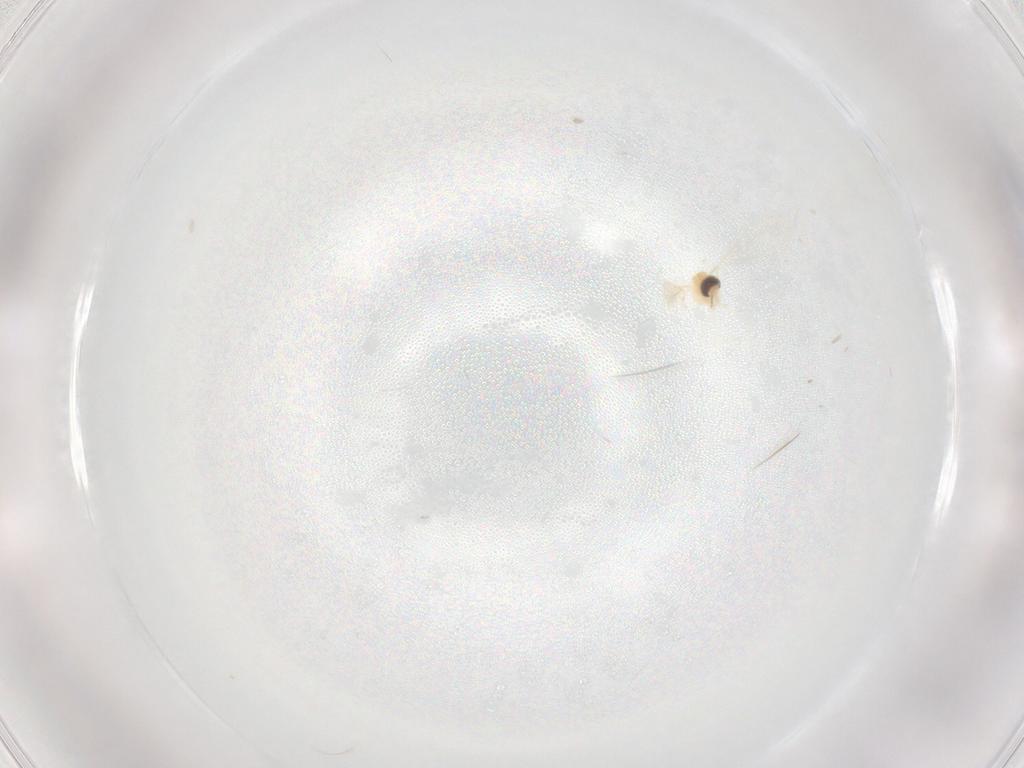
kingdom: Animalia
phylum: Arthropoda
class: Insecta
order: Diptera
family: Cecidomyiidae
